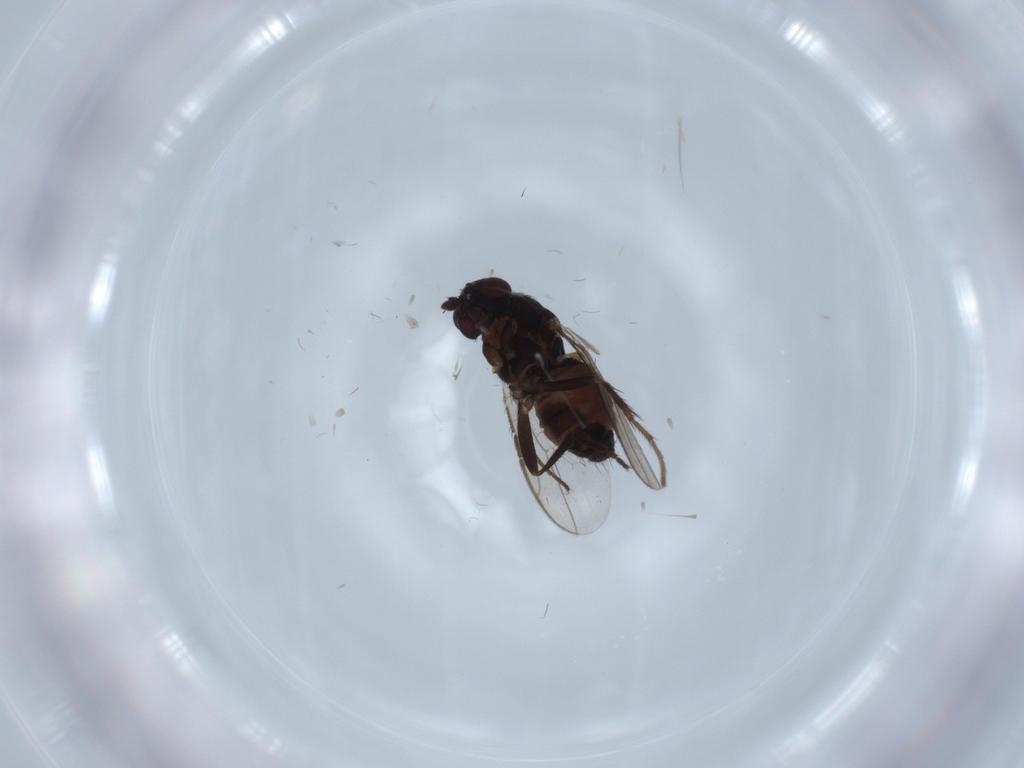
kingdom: Animalia
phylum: Arthropoda
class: Insecta
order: Diptera
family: Sphaeroceridae
